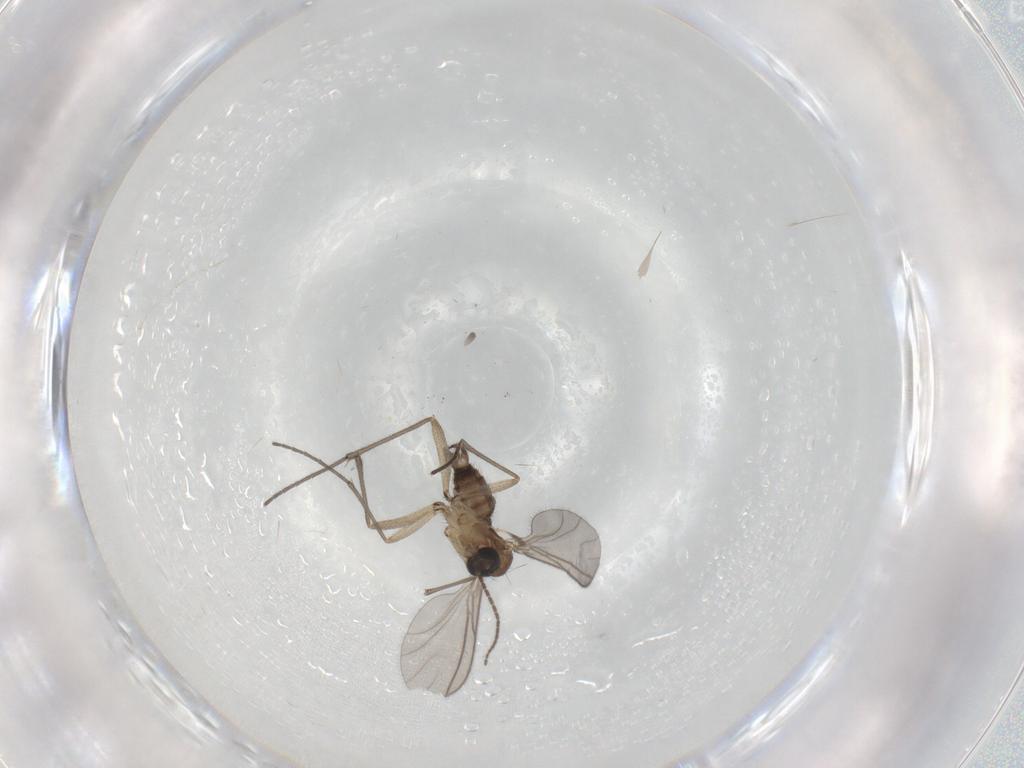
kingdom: Animalia
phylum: Arthropoda
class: Insecta
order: Diptera
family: Sciaridae
